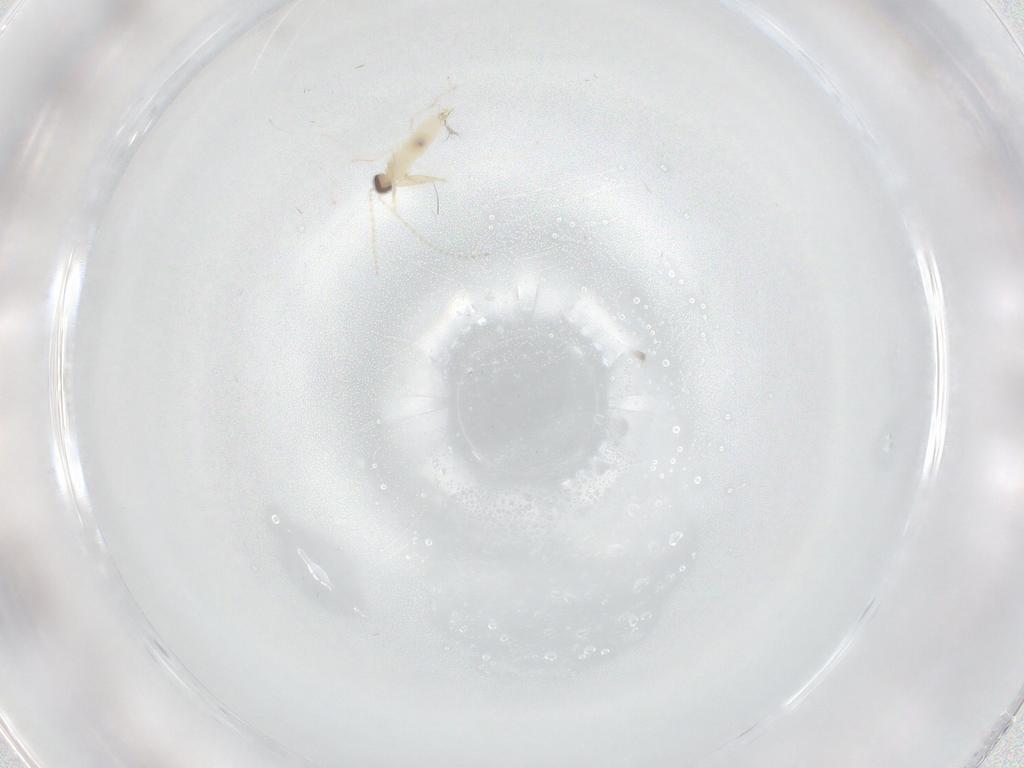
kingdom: Animalia
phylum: Arthropoda
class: Insecta
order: Diptera
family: Cecidomyiidae
